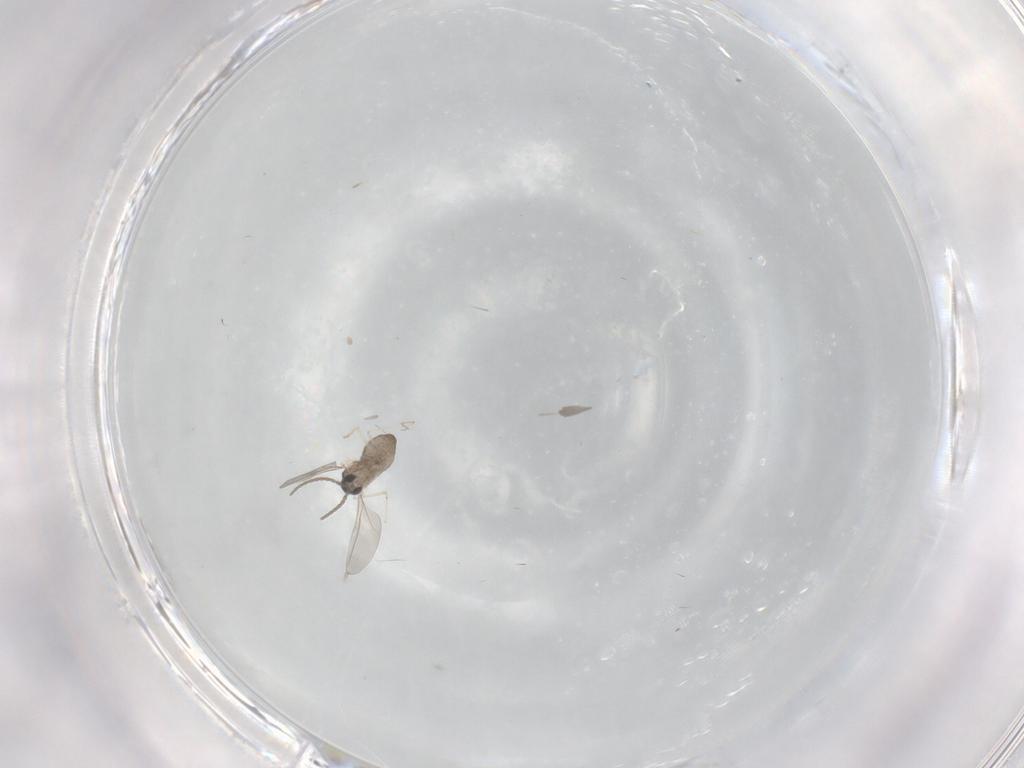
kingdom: Animalia
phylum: Arthropoda
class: Insecta
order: Diptera
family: Cecidomyiidae
